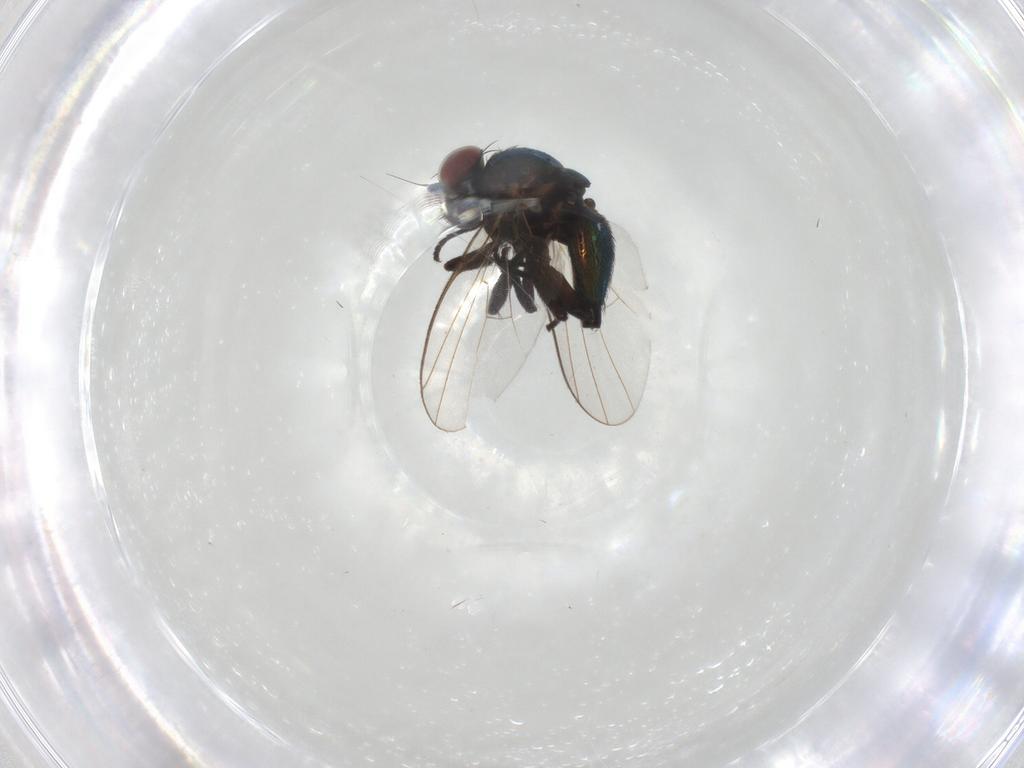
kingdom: Animalia
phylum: Arthropoda
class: Insecta
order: Diptera
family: Agromyzidae
